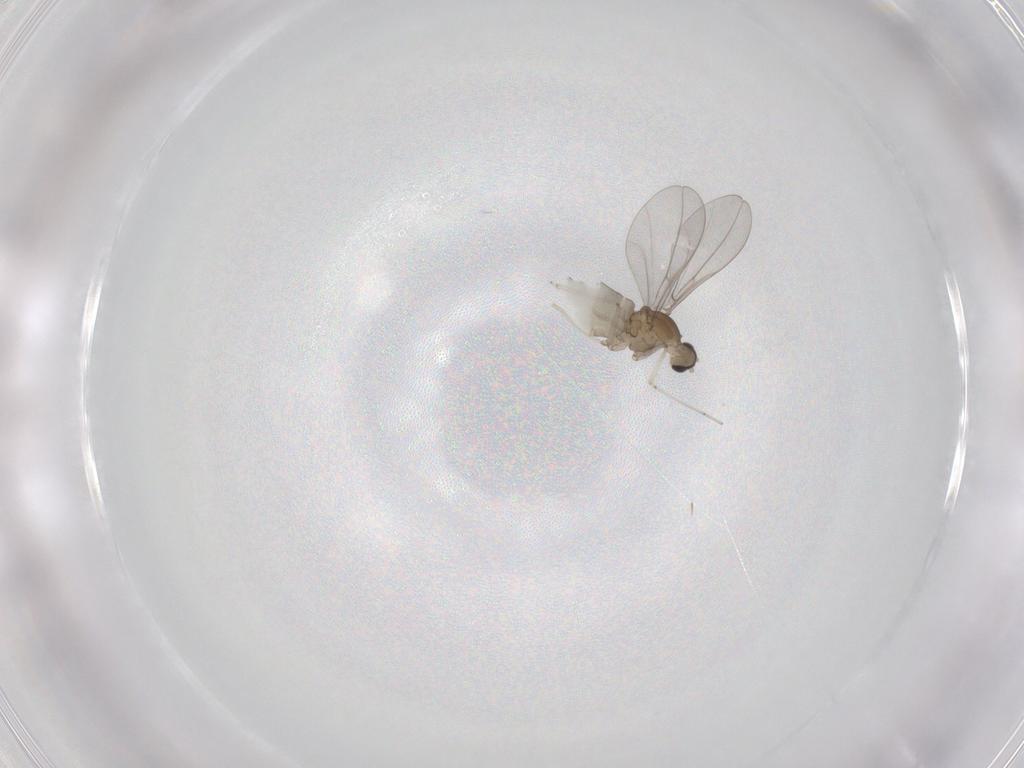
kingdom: Animalia
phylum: Arthropoda
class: Insecta
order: Diptera
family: Cecidomyiidae
